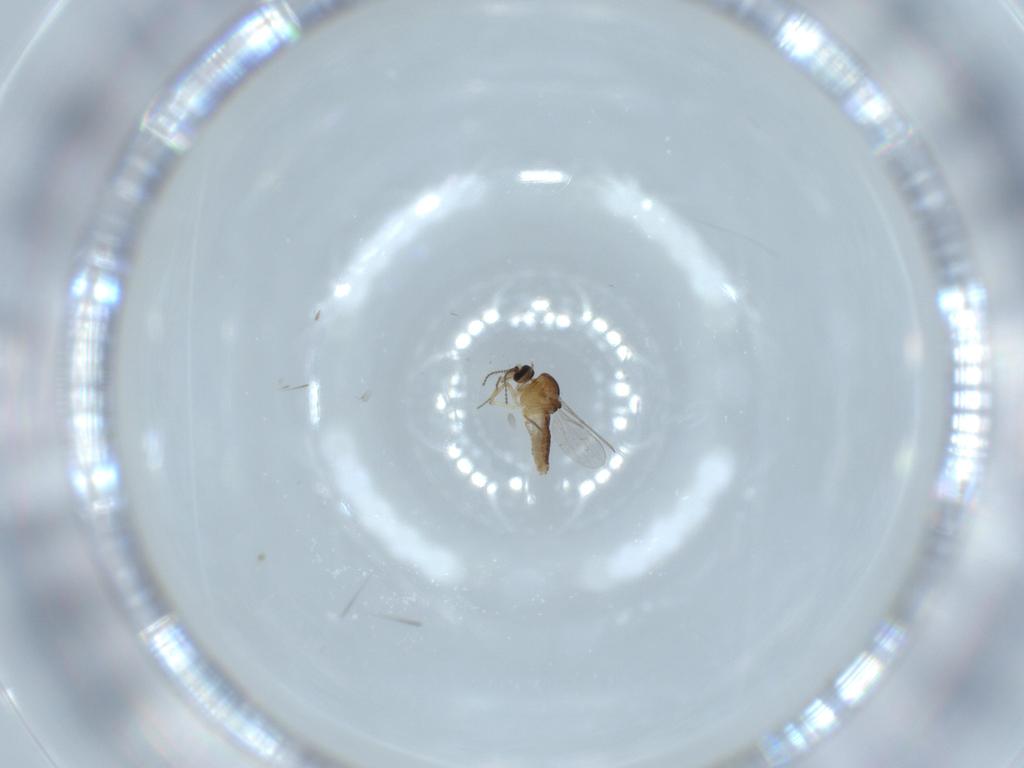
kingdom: Animalia
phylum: Arthropoda
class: Insecta
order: Diptera
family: Ceratopogonidae
